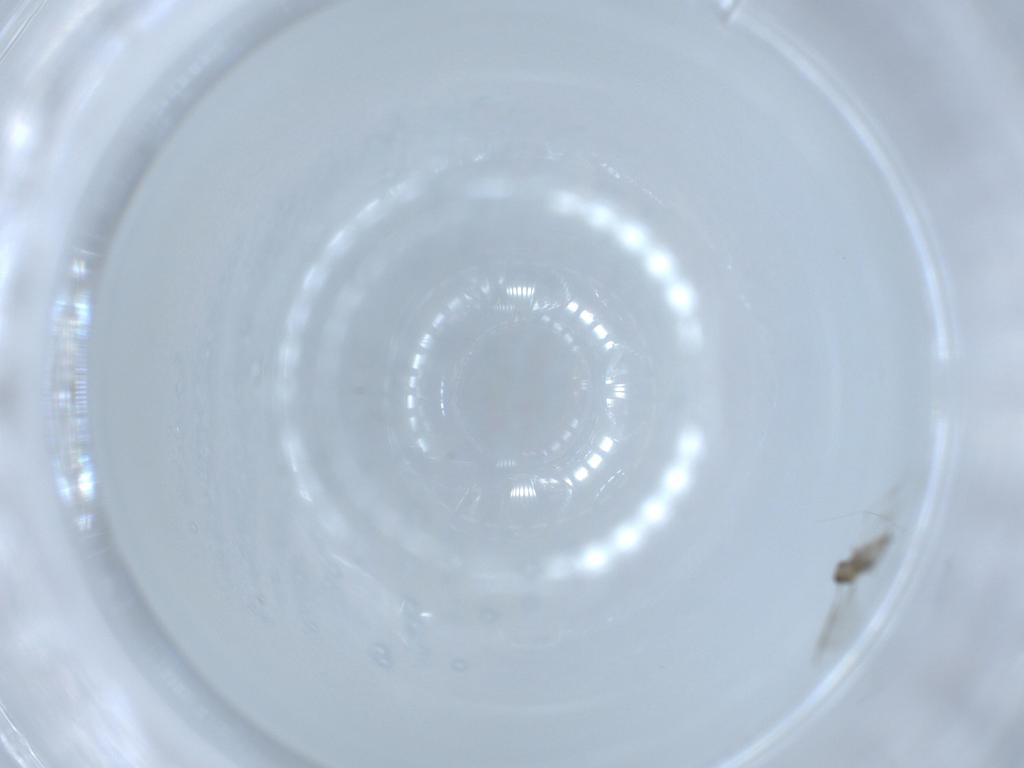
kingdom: Animalia
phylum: Arthropoda
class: Insecta
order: Diptera
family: Cecidomyiidae
